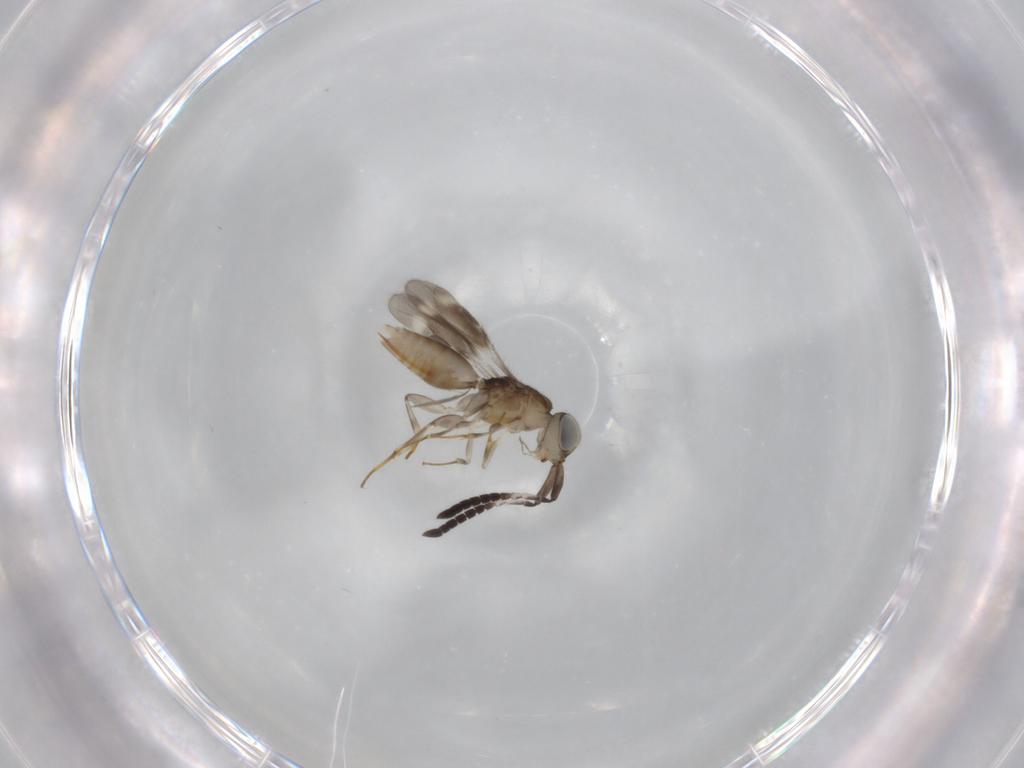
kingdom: Animalia
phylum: Arthropoda
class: Insecta
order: Hymenoptera
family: Megaspilidae
